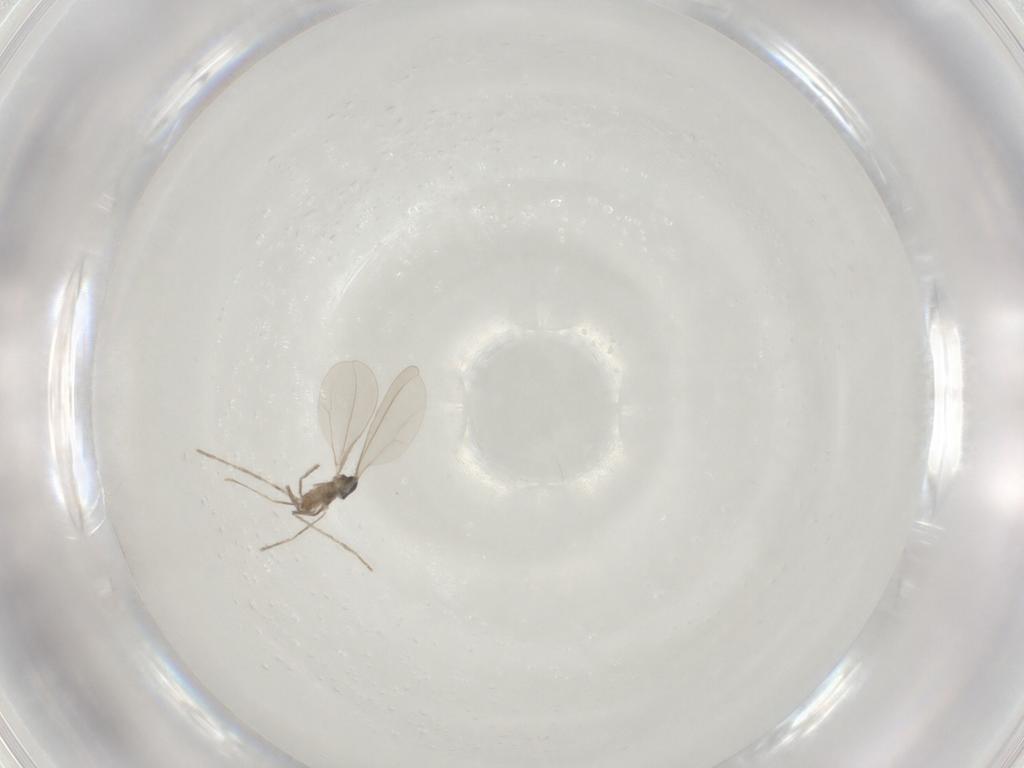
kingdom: Animalia
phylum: Arthropoda
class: Insecta
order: Diptera
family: Cecidomyiidae
